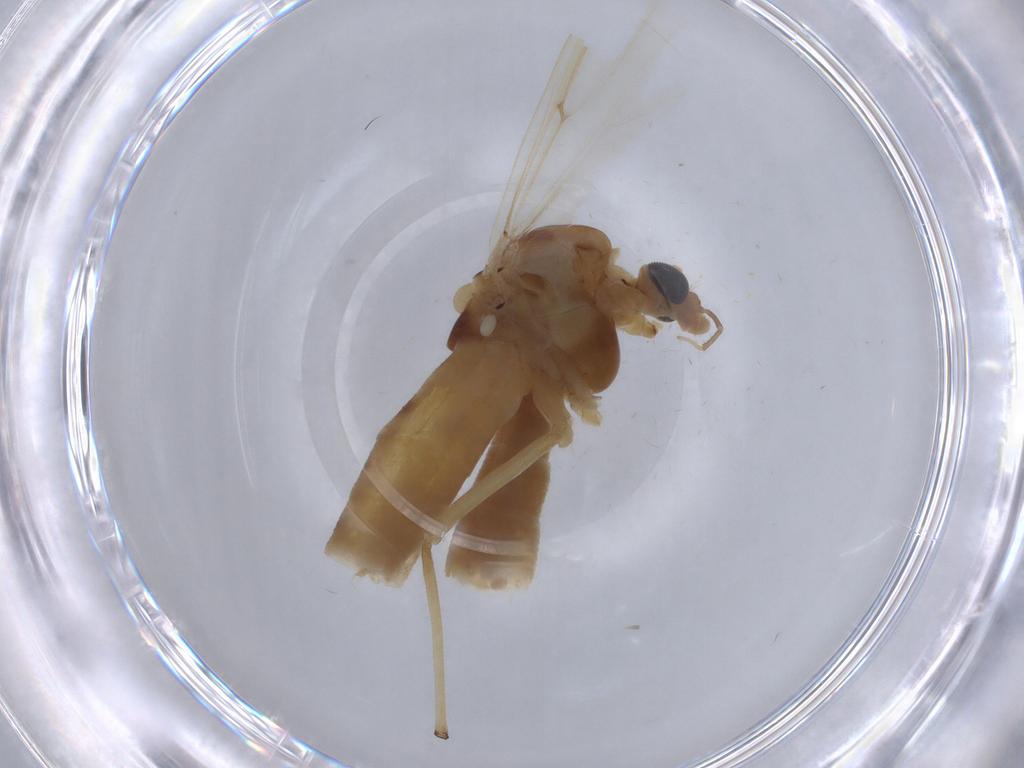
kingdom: Animalia
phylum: Arthropoda
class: Insecta
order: Diptera
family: Chironomidae
